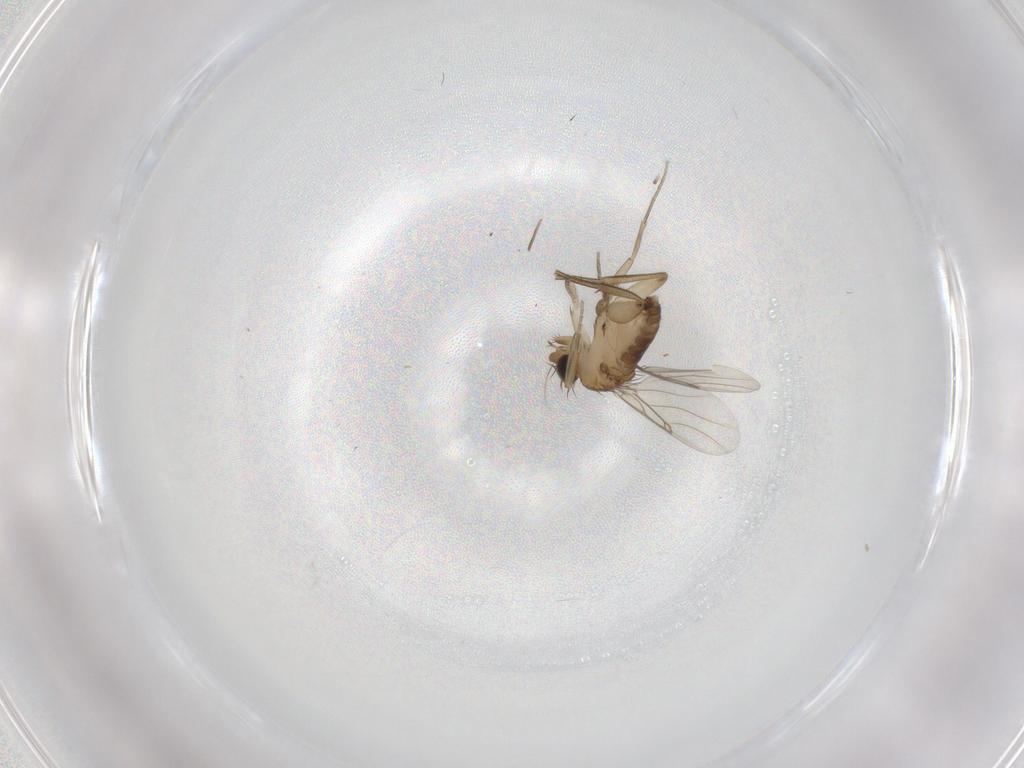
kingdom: Animalia
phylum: Arthropoda
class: Insecta
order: Diptera
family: Phoridae
